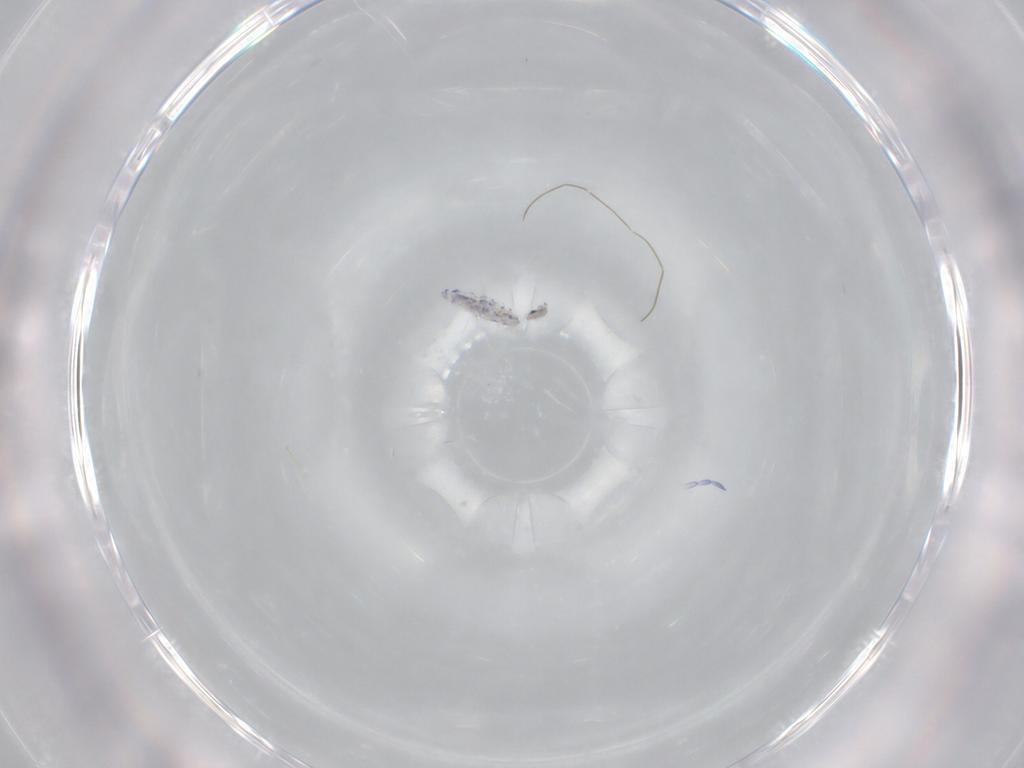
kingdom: Animalia
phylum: Arthropoda
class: Collembola
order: Entomobryomorpha
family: Entomobryidae
